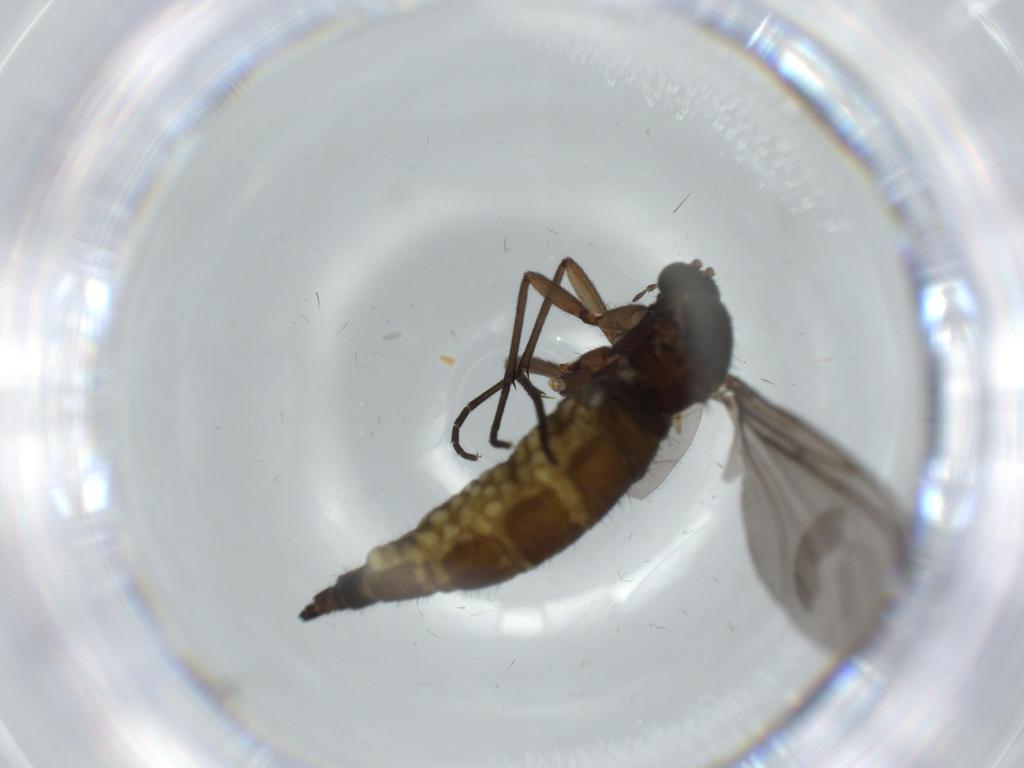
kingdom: Animalia
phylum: Arthropoda
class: Insecta
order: Diptera
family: Sciaridae
